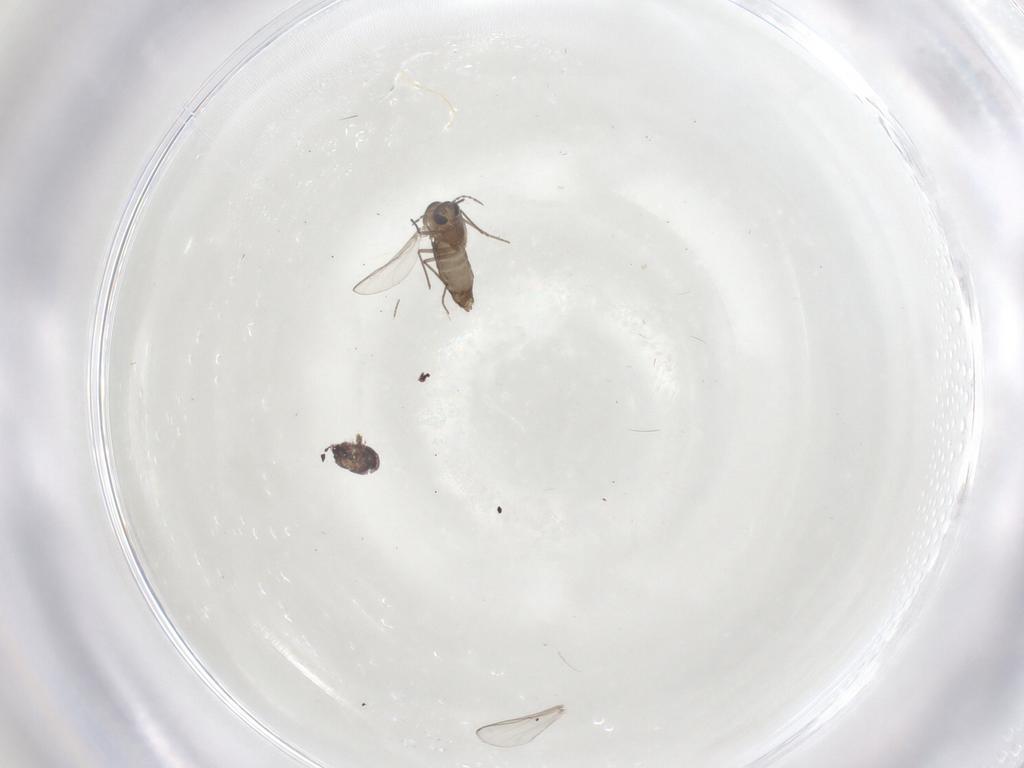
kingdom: Animalia
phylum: Arthropoda
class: Insecta
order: Diptera
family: Chironomidae
